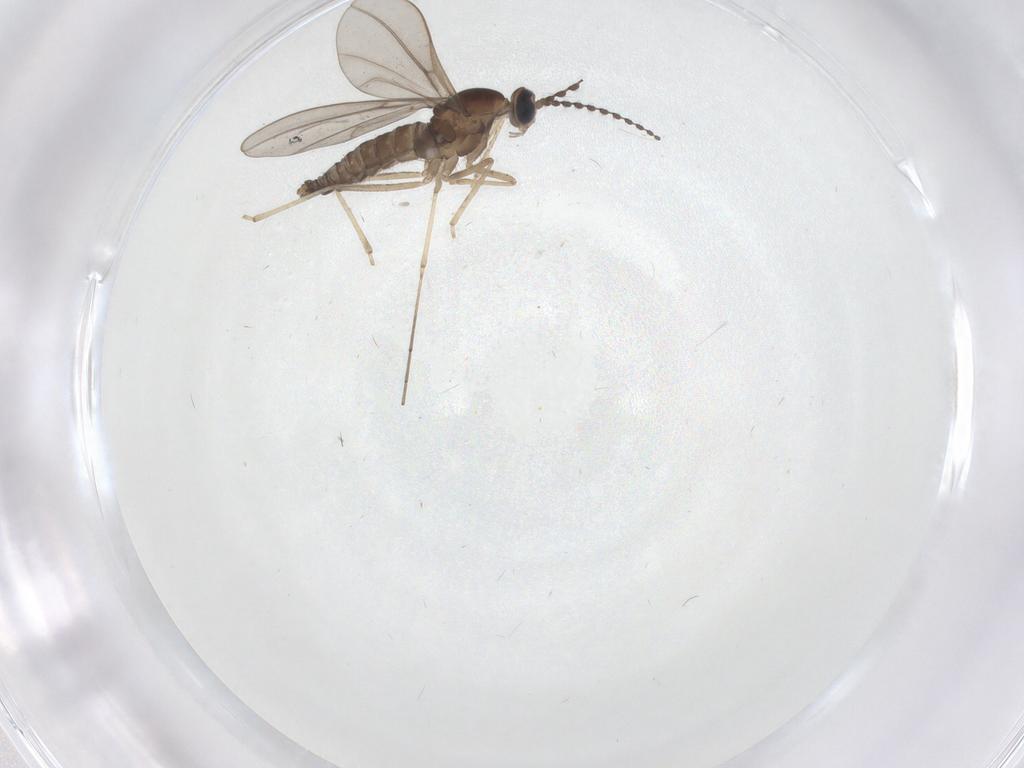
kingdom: Animalia
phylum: Arthropoda
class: Insecta
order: Diptera
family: Cecidomyiidae
